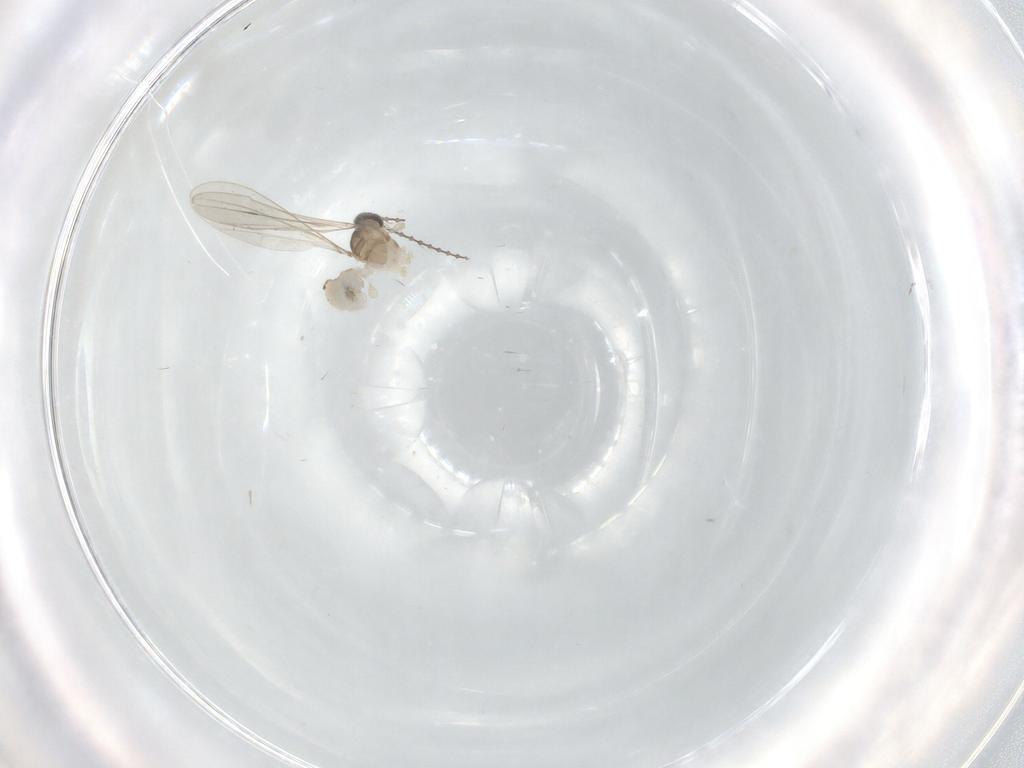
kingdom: Animalia
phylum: Arthropoda
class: Insecta
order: Diptera
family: Cecidomyiidae
